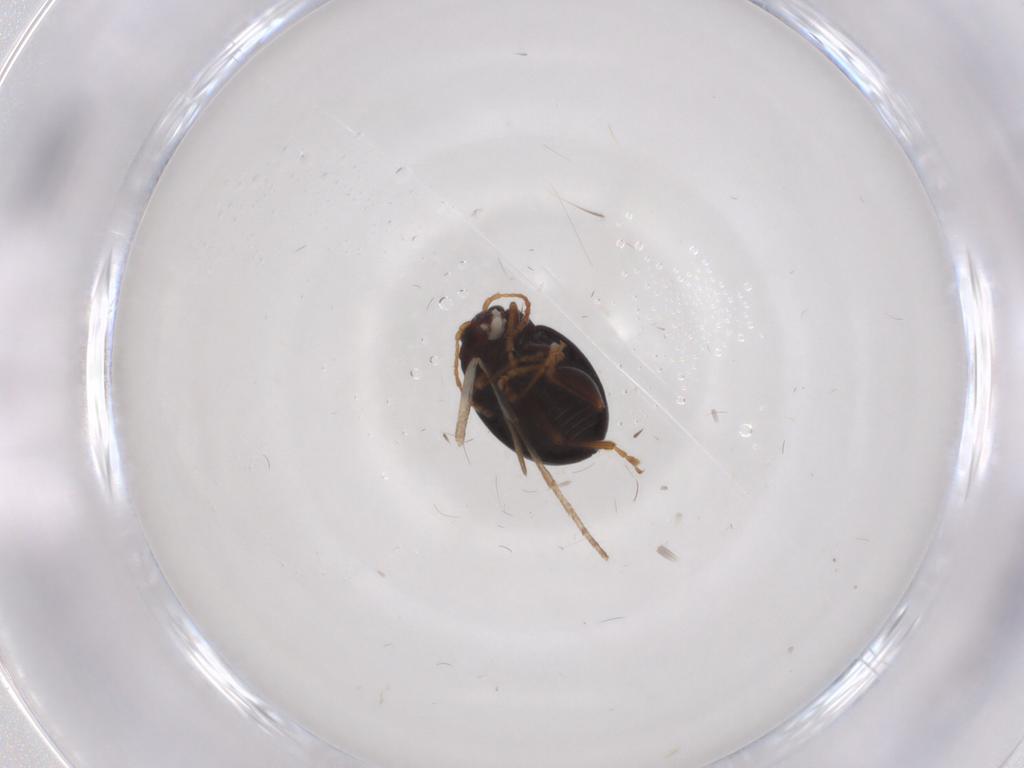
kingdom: Animalia
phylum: Arthropoda
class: Insecta
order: Coleoptera
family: Chrysomelidae
